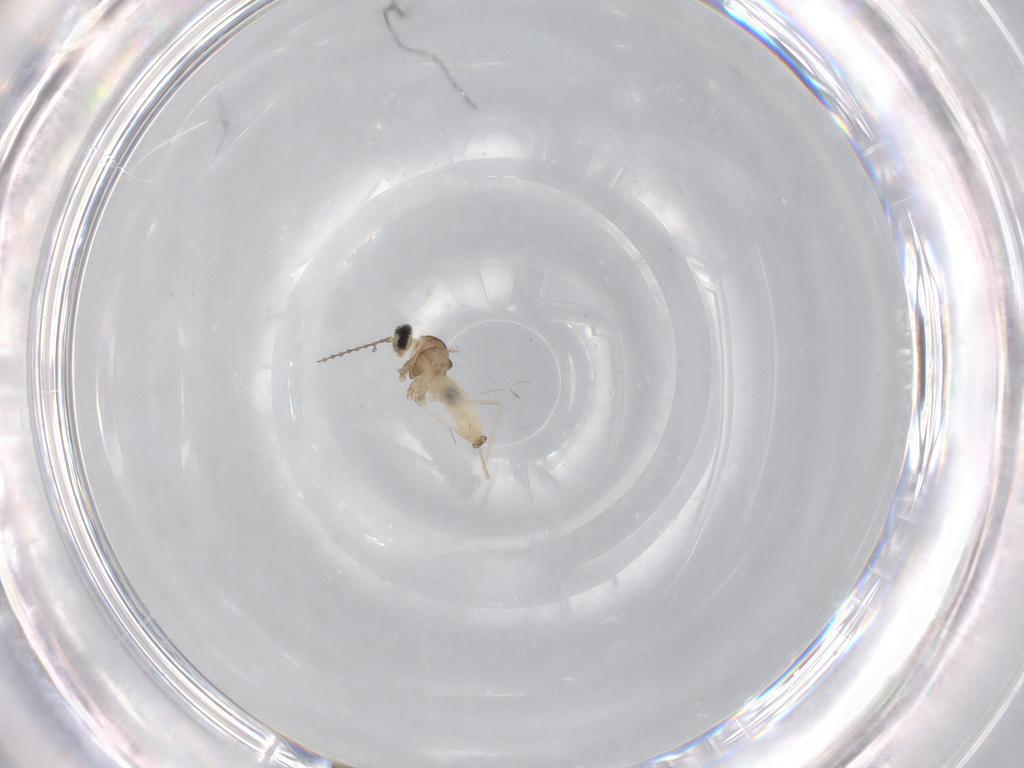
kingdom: Animalia
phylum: Arthropoda
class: Insecta
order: Diptera
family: Cecidomyiidae
